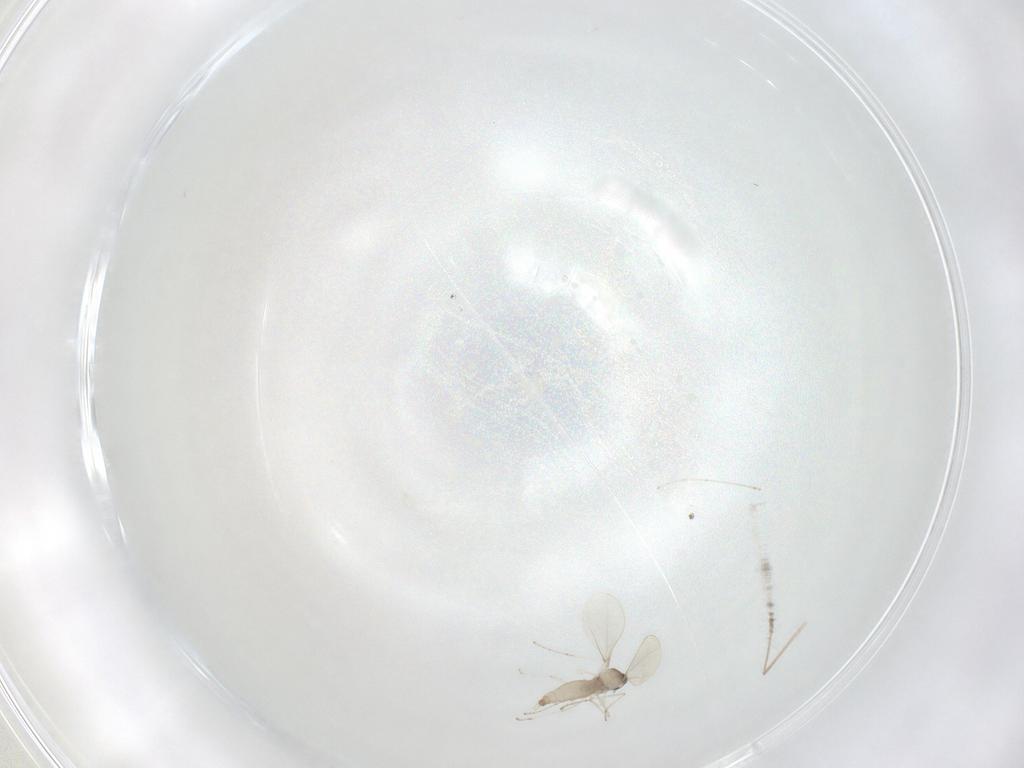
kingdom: Animalia
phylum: Arthropoda
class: Insecta
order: Diptera
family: Cecidomyiidae
